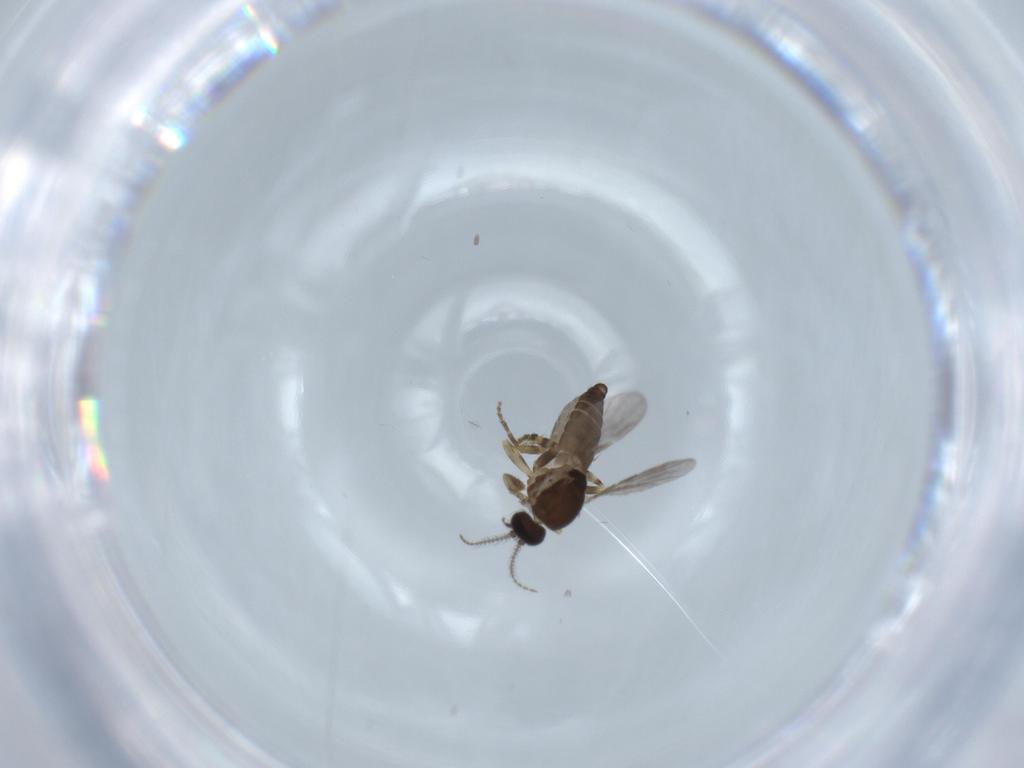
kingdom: Animalia
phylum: Arthropoda
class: Insecta
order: Diptera
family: Ceratopogonidae
